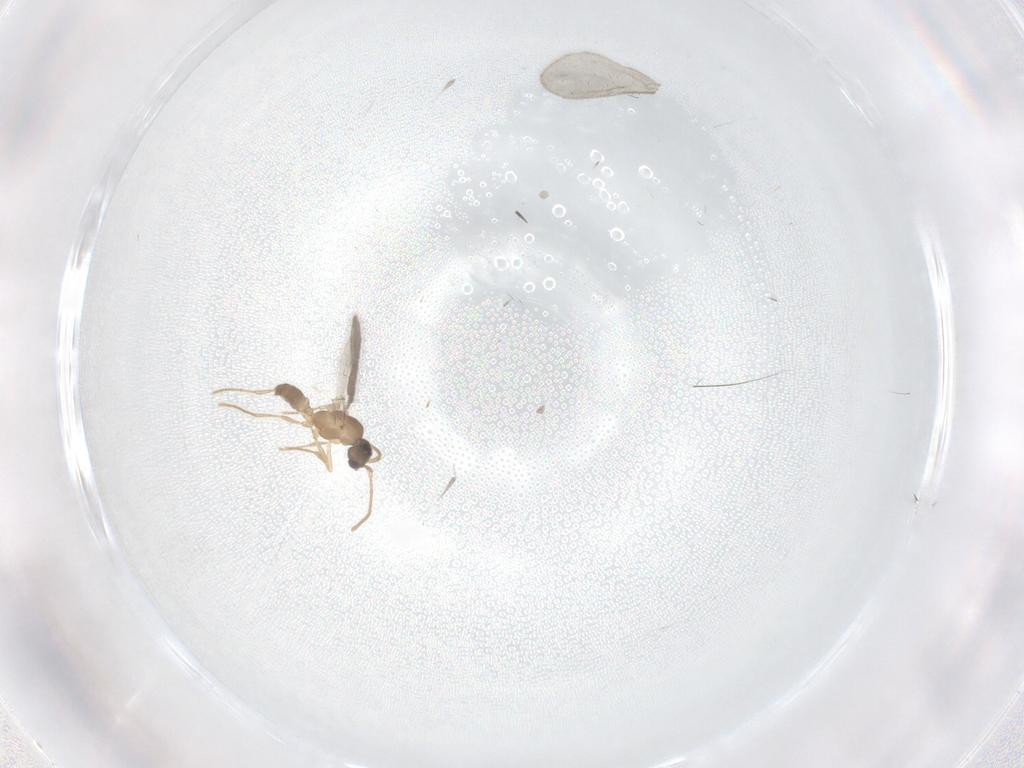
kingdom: Animalia
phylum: Arthropoda
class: Insecta
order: Hymenoptera
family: Formicidae
